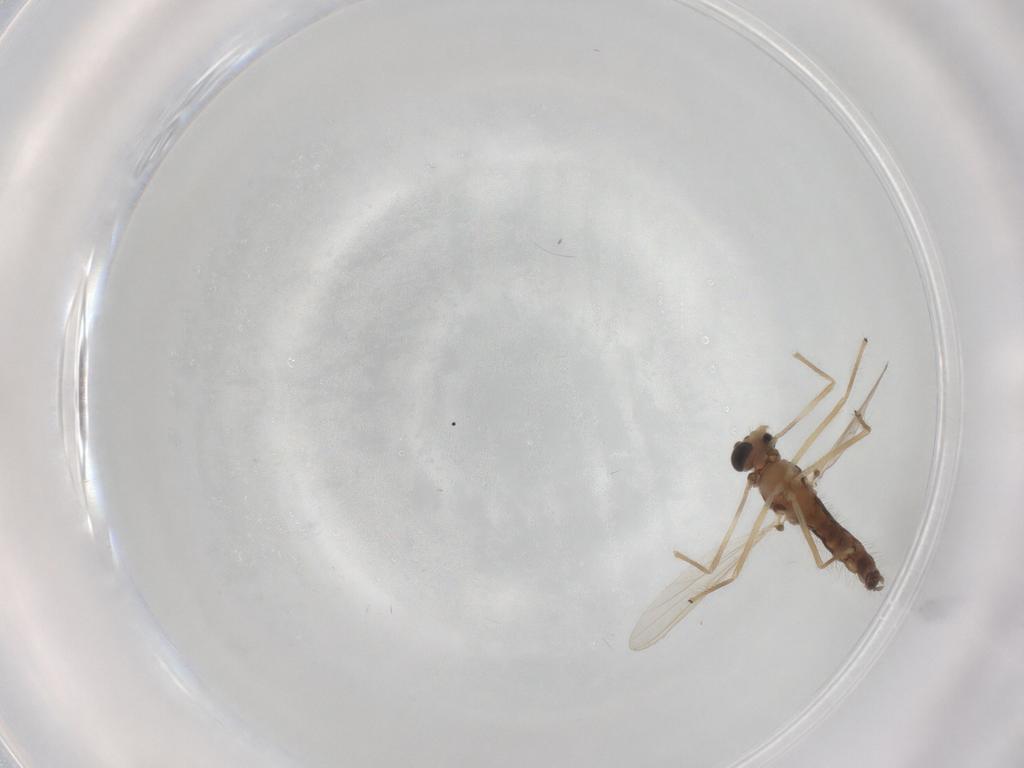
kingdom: Animalia
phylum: Arthropoda
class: Insecta
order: Diptera
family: Chironomidae
